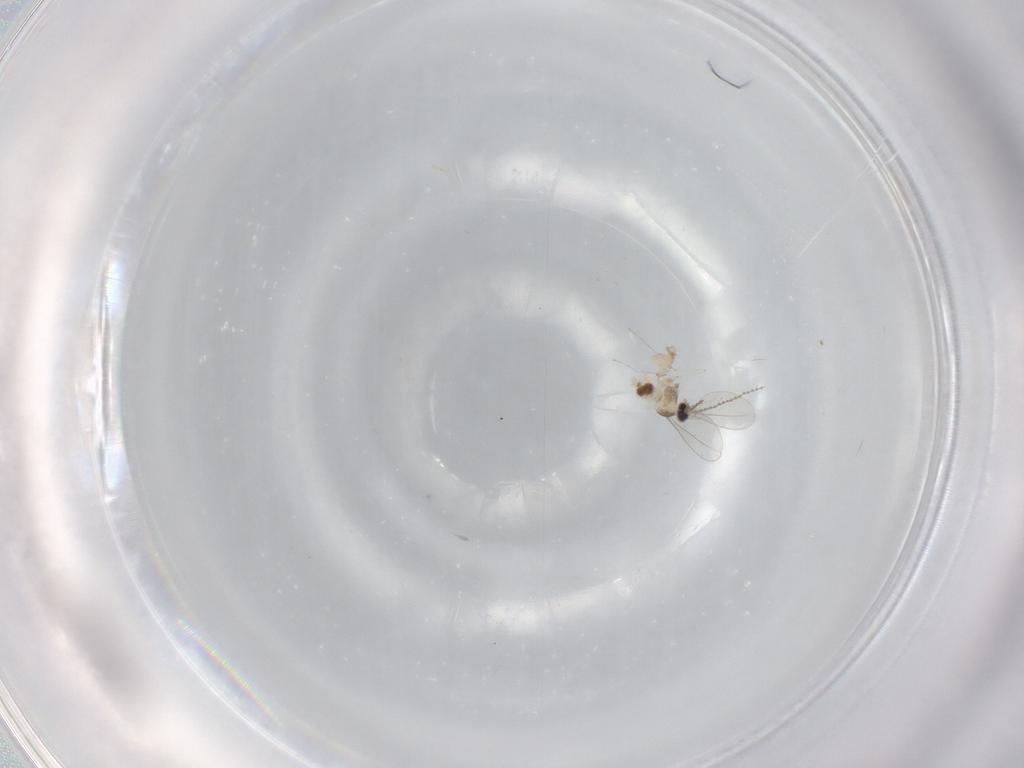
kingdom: Animalia
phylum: Arthropoda
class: Insecta
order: Diptera
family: Cecidomyiidae
